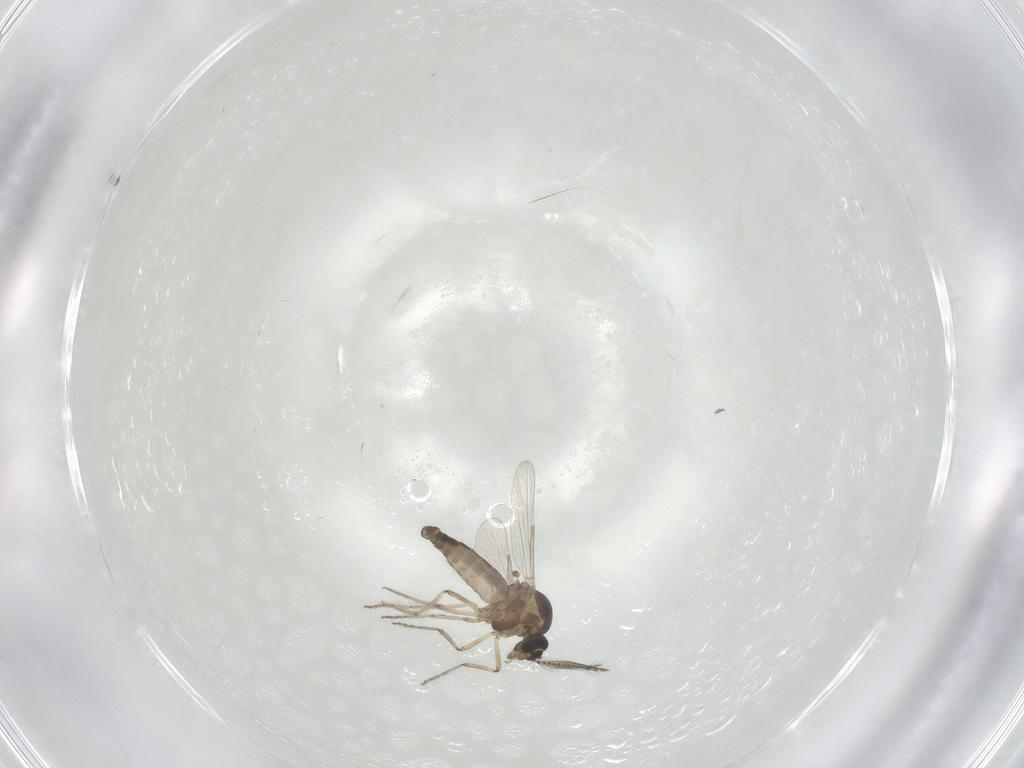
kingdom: Animalia
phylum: Arthropoda
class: Insecta
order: Diptera
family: Ceratopogonidae
